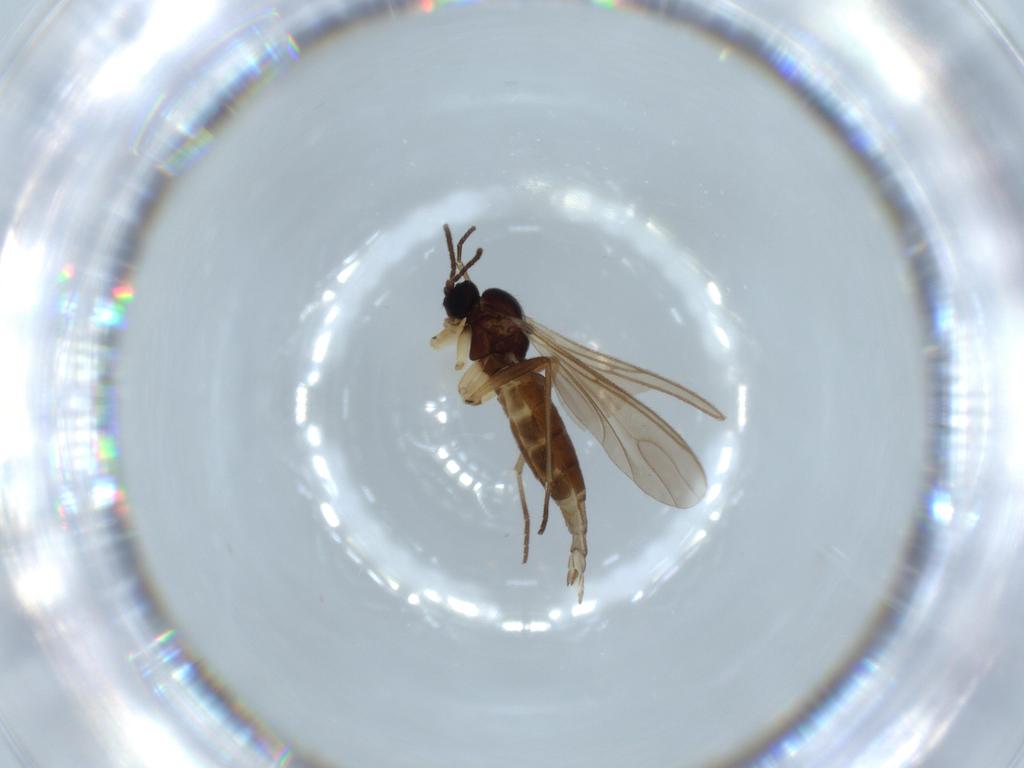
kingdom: Animalia
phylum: Arthropoda
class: Insecta
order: Diptera
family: Sciaridae
